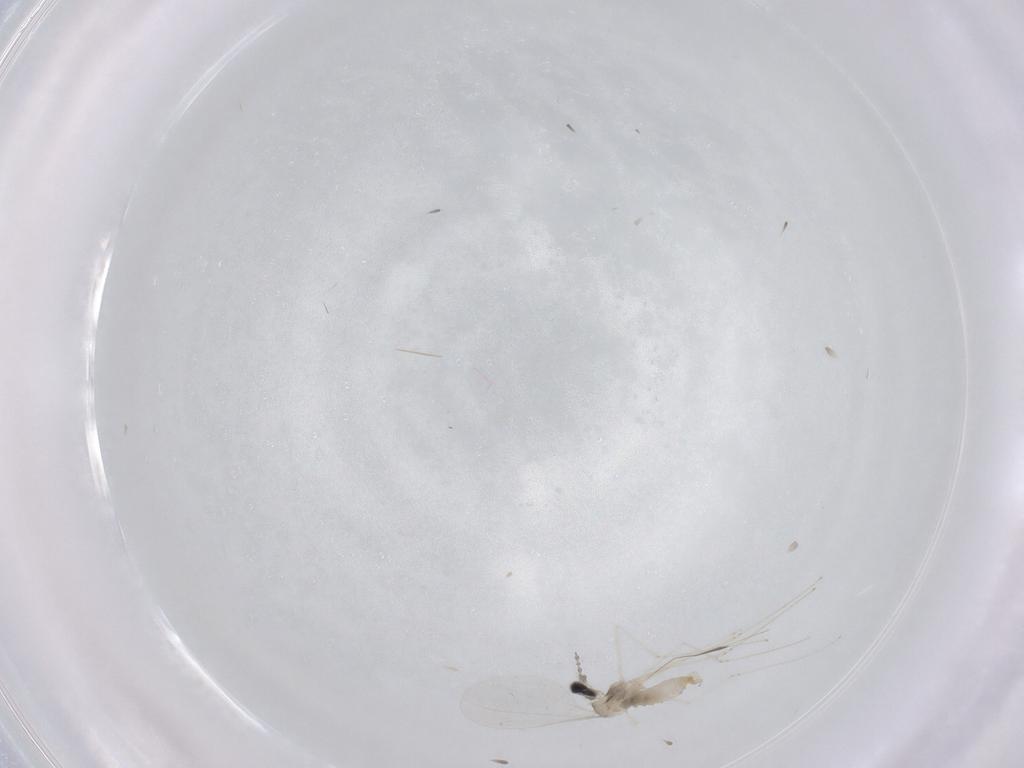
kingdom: Animalia
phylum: Arthropoda
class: Insecta
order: Diptera
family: Cecidomyiidae
